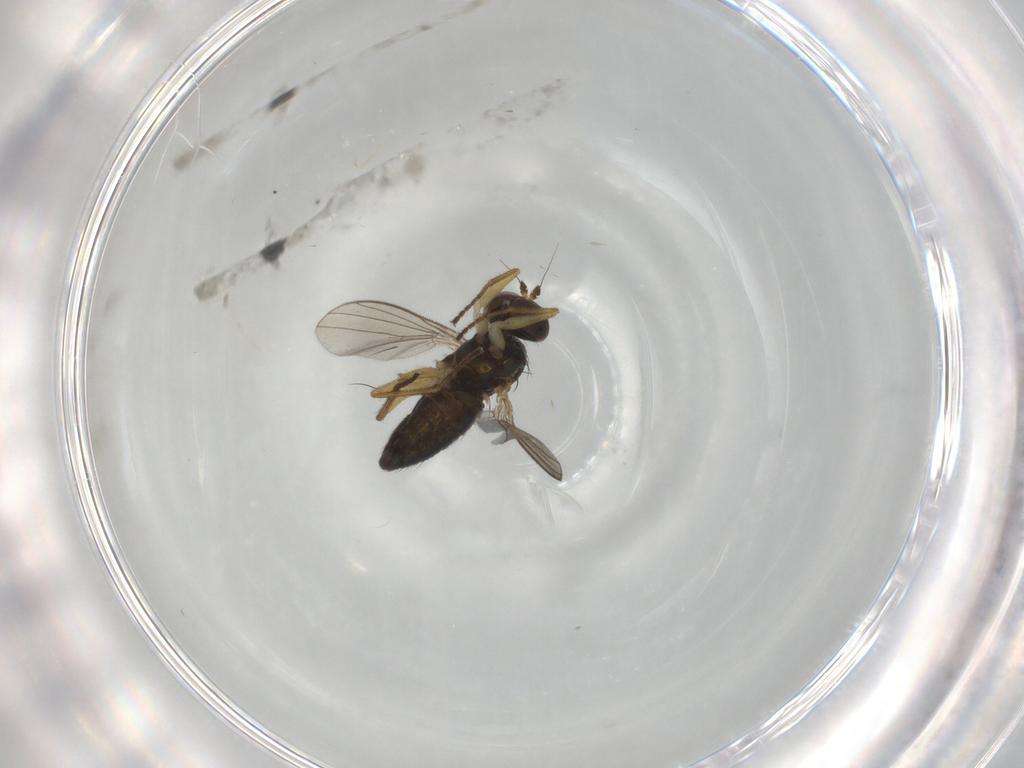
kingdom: Animalia
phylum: Arthropoda
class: Insecta
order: Diptera
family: Dolichopodidae
